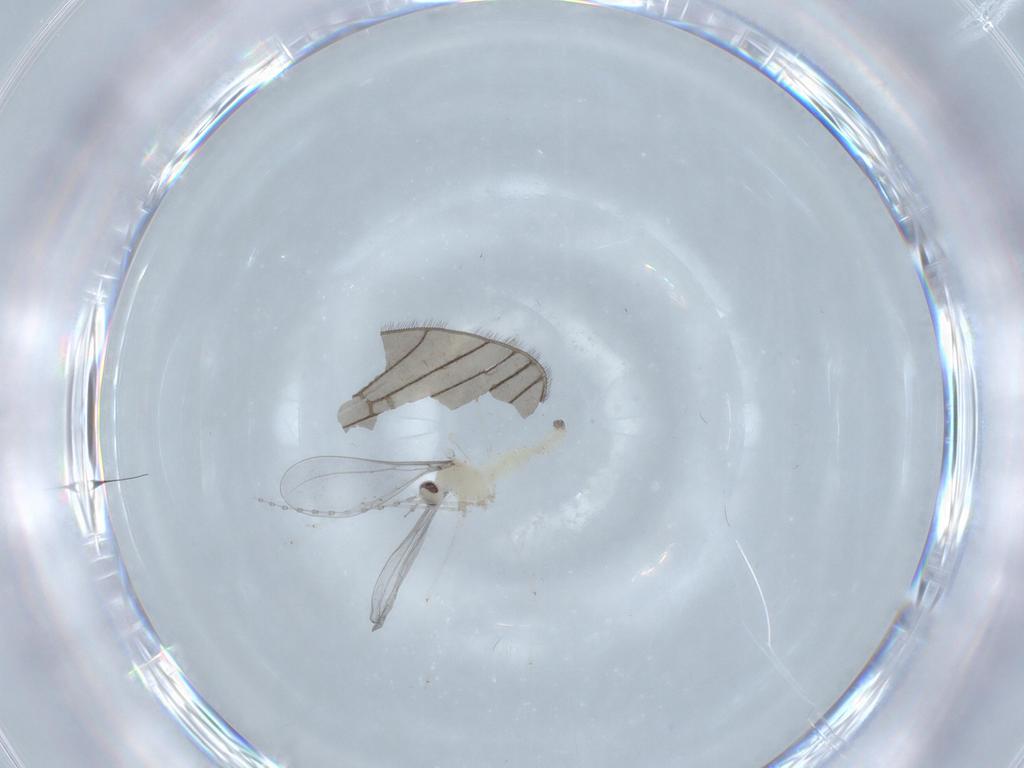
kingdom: Animalia
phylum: Arthropoda
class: Insecta
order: Diptera
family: Cecidomyiidae
